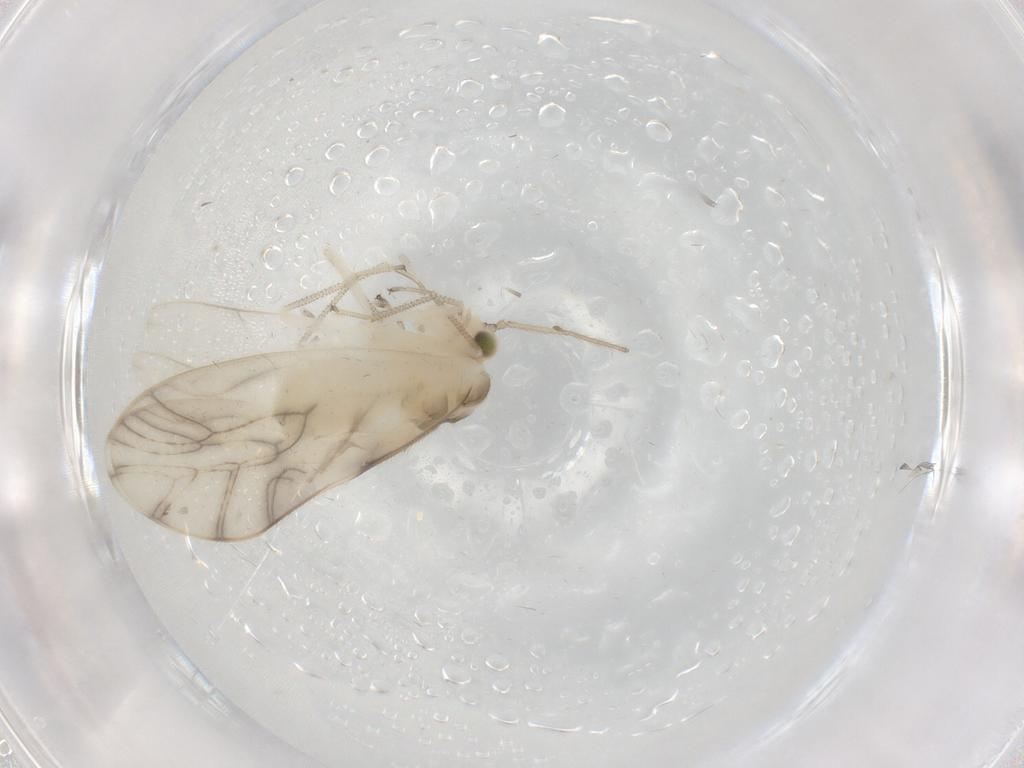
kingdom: Animalia
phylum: Arthropoda
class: Insecta
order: Psocodea
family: Caeciliusidae
